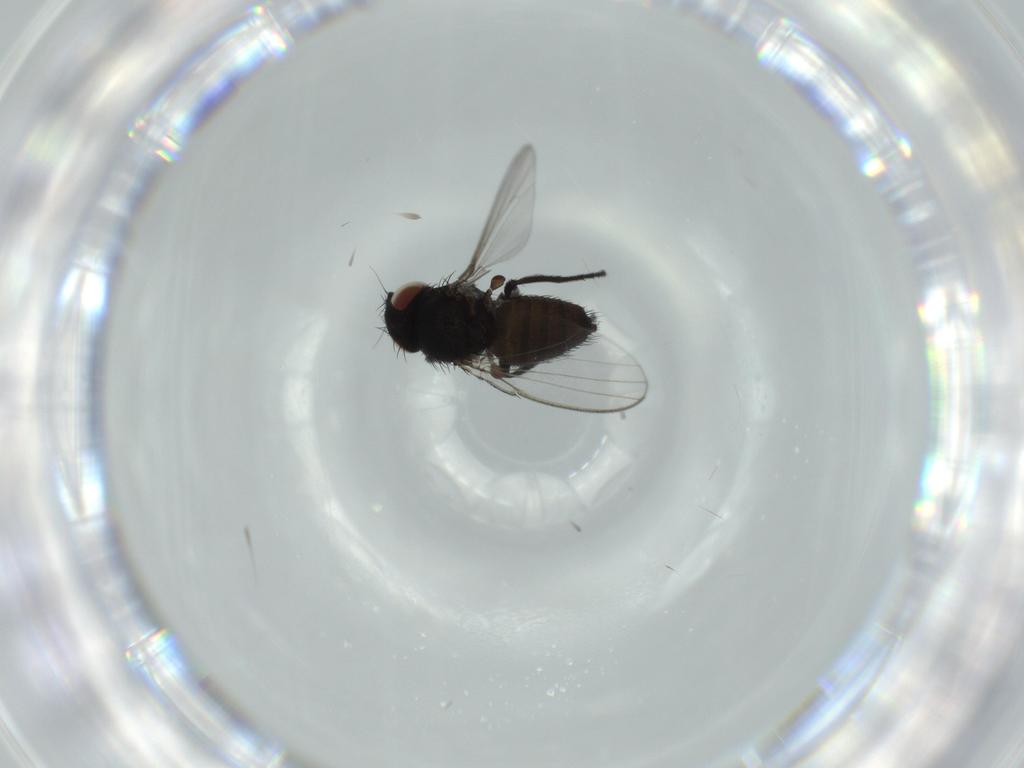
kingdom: Animalia
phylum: Arthropoda
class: Insecta
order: Diptera
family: Milichiidae
